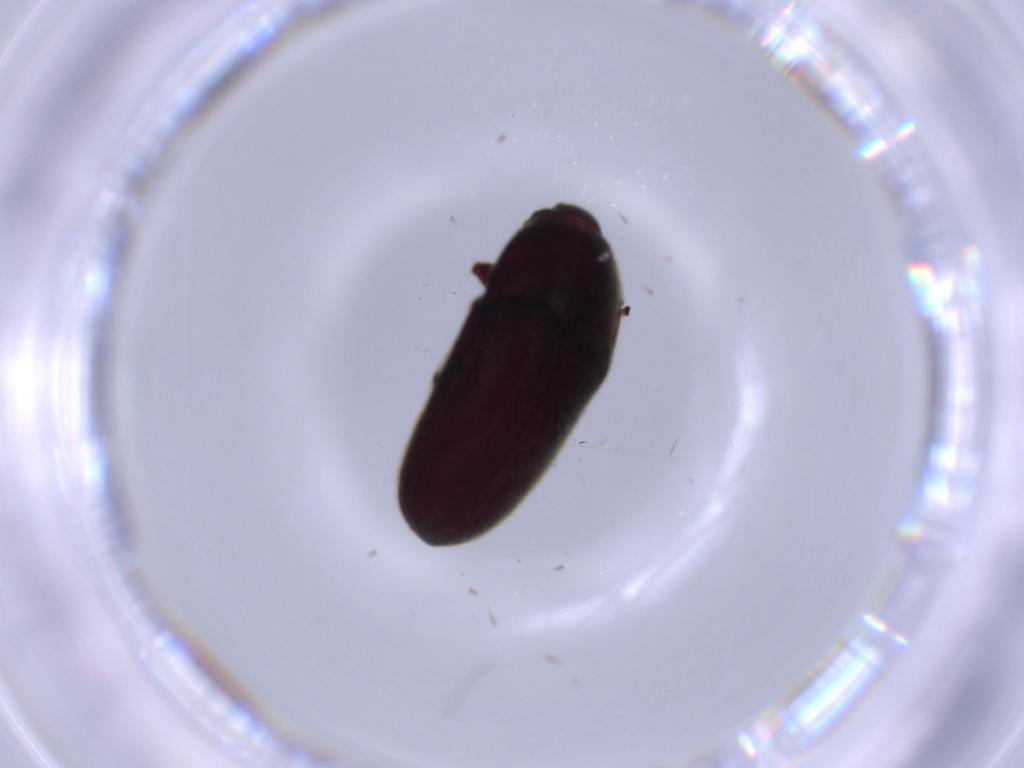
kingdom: Animalia
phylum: Arthropoda
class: Insecta
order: Coleoptera
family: Throscidae
